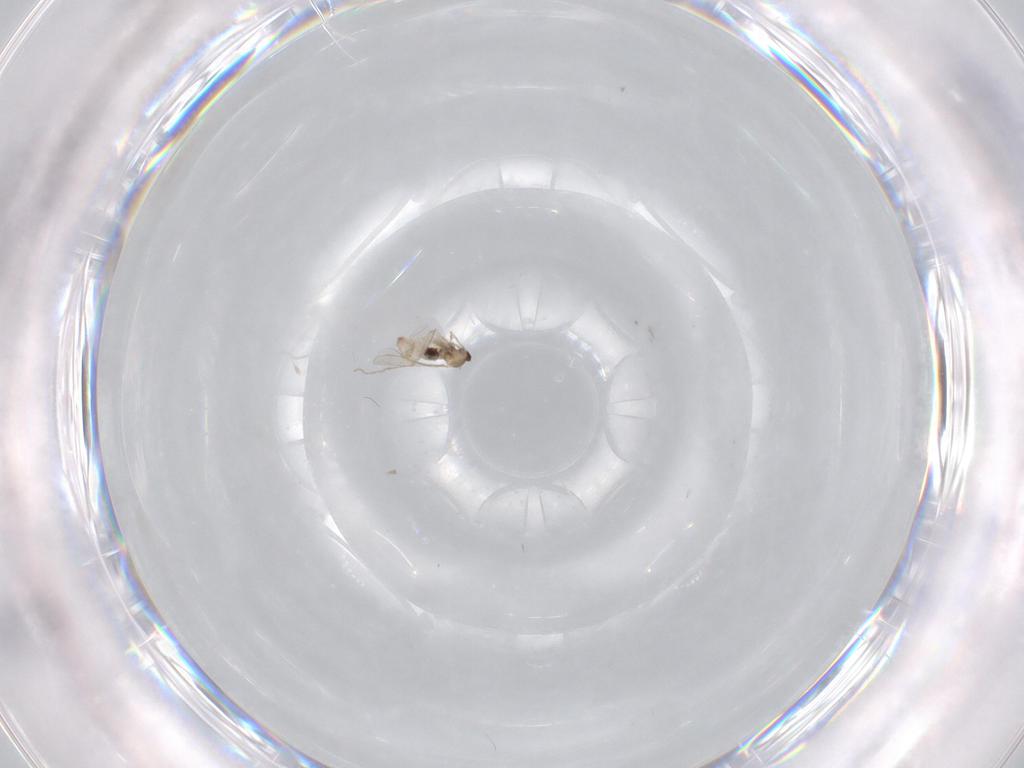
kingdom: Animalia
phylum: Arthropoda
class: Insecta
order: Diptera
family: Cecidomyiidae
